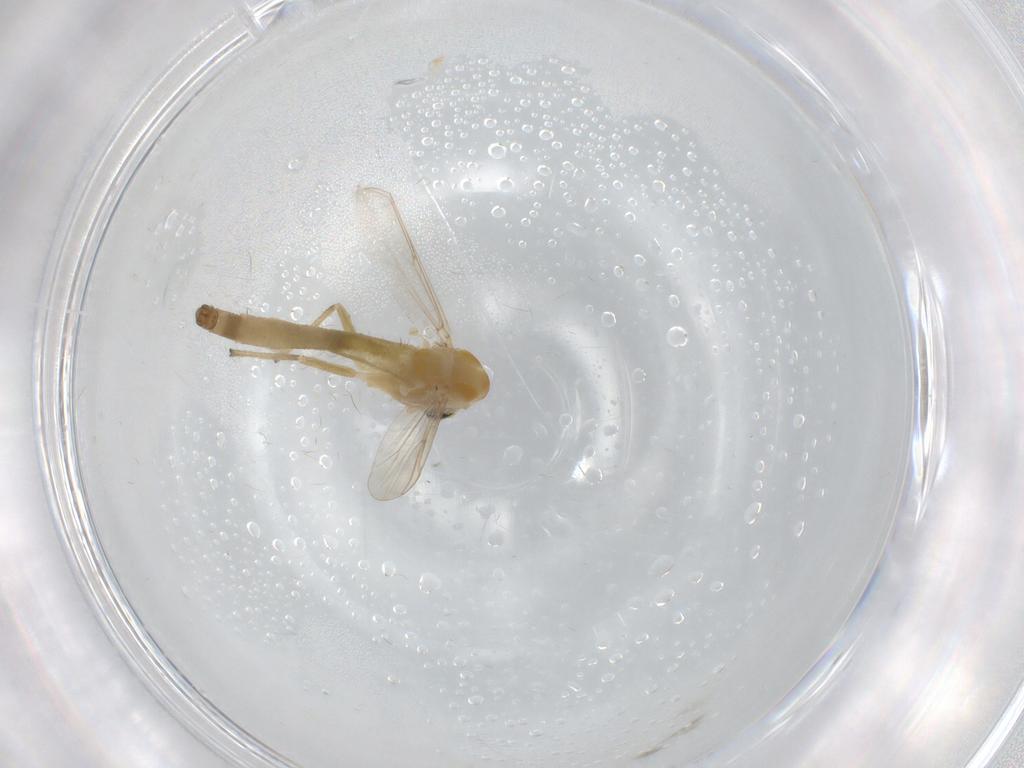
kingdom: Animalia
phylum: Arthropoda
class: Insecta
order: Diptera
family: Chironomidae
